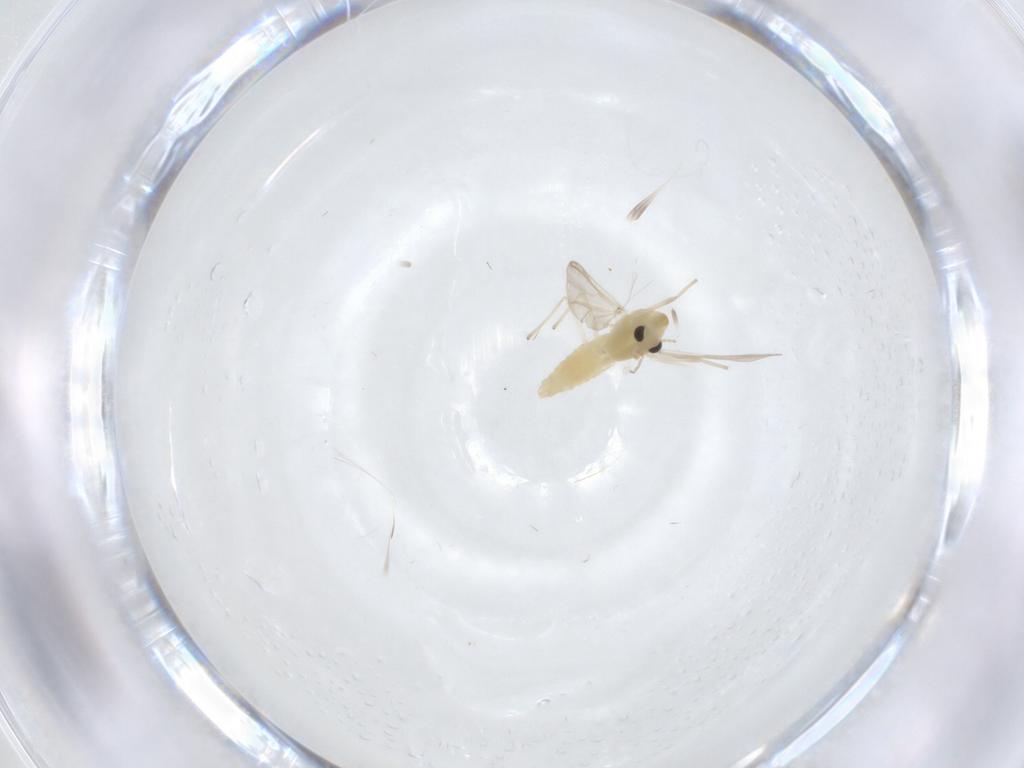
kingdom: Animalia
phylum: Arthropoda
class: Insecta
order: Diptera
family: Chironomidae
